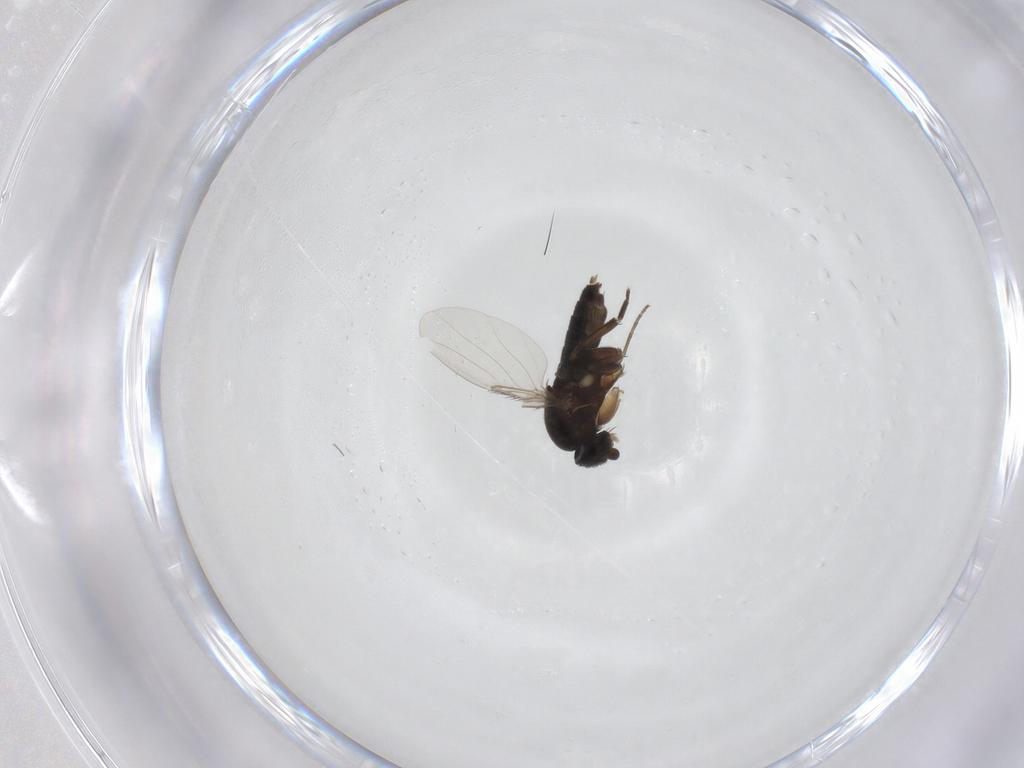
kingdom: Animalia
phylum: Arthropoda
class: Insecta
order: Diptera
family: Phoridae
